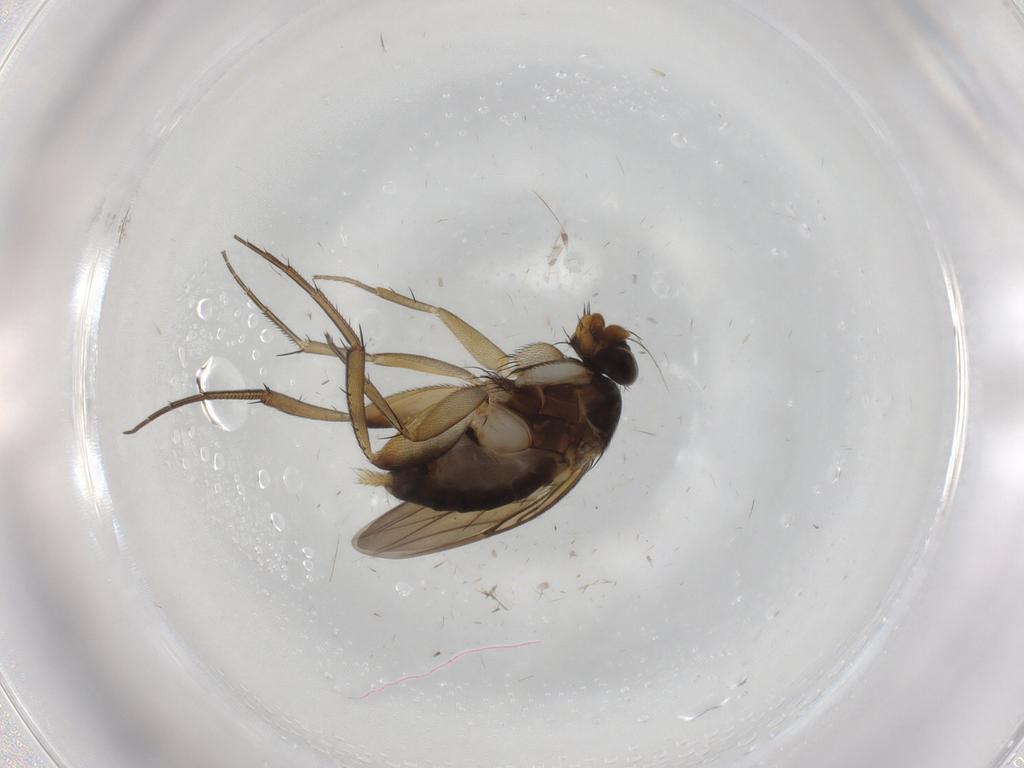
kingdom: Animalia
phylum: Arthropoda
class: Insecta
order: Diptera
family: Phoridae
